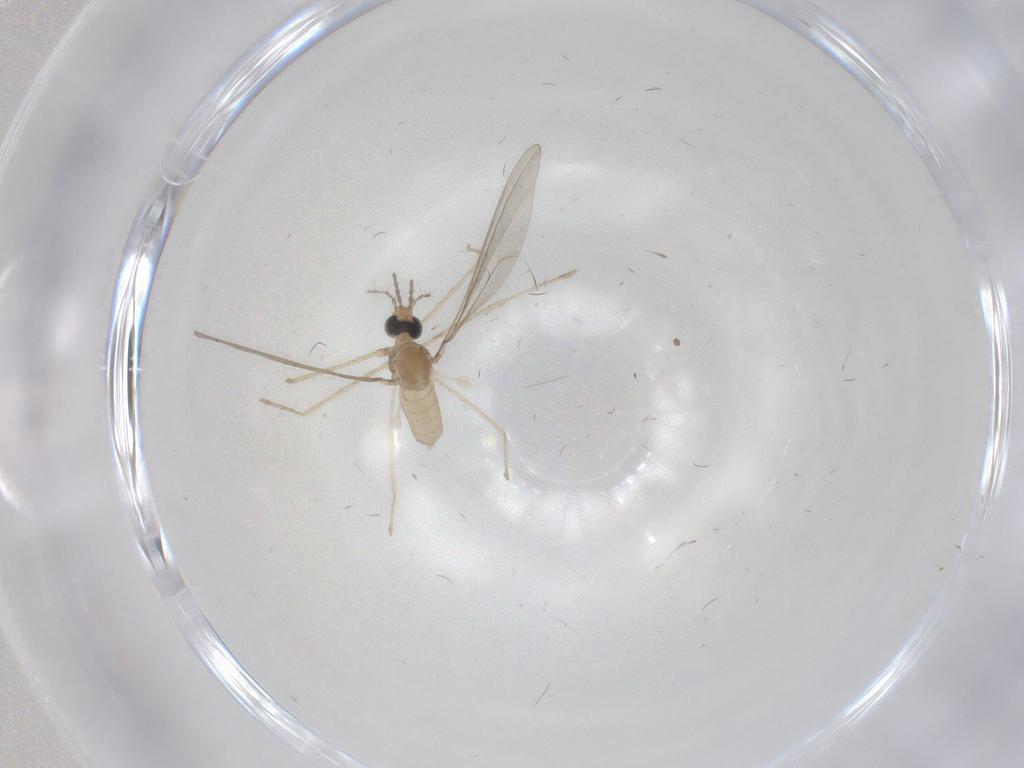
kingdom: Animalia
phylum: Arthropoda
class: Insecta
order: Diptera
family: Cecidomyiidae
